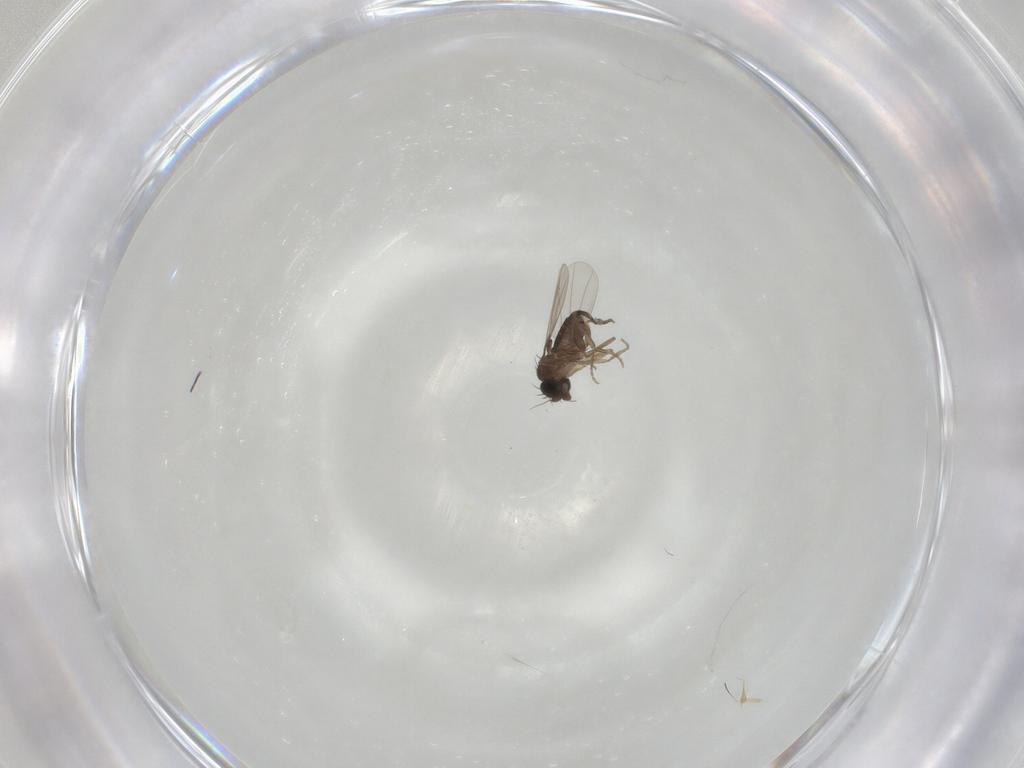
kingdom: Animalia
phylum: Arthropoda
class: Insecta
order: Diptera
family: Phoridae
